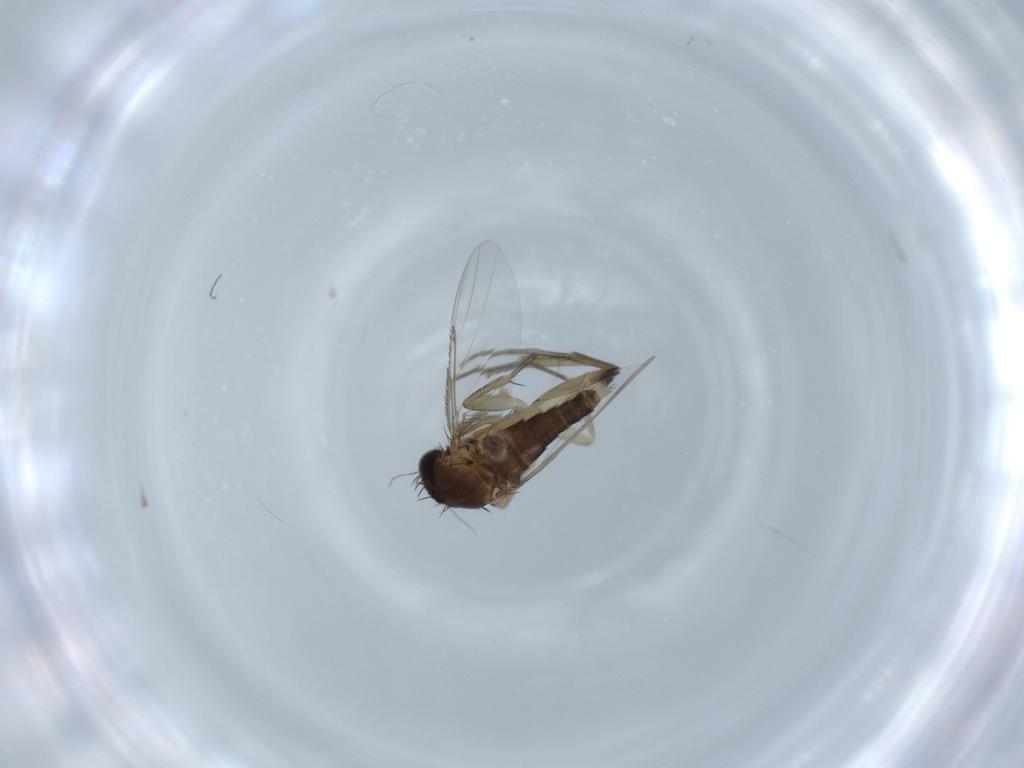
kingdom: Animalia
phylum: Arthropoda
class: Insecta
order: Diptera
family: Phoridae
